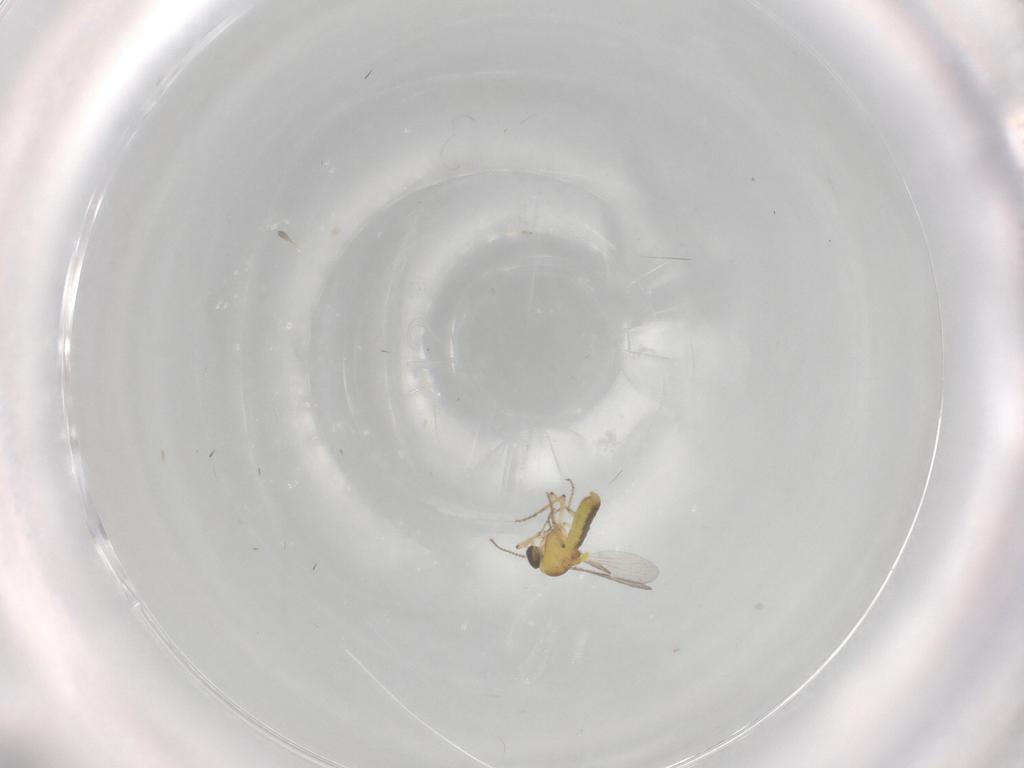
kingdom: Animalia
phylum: Arthropoda
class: Insecta
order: Diptera
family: Ceratopogonidae
